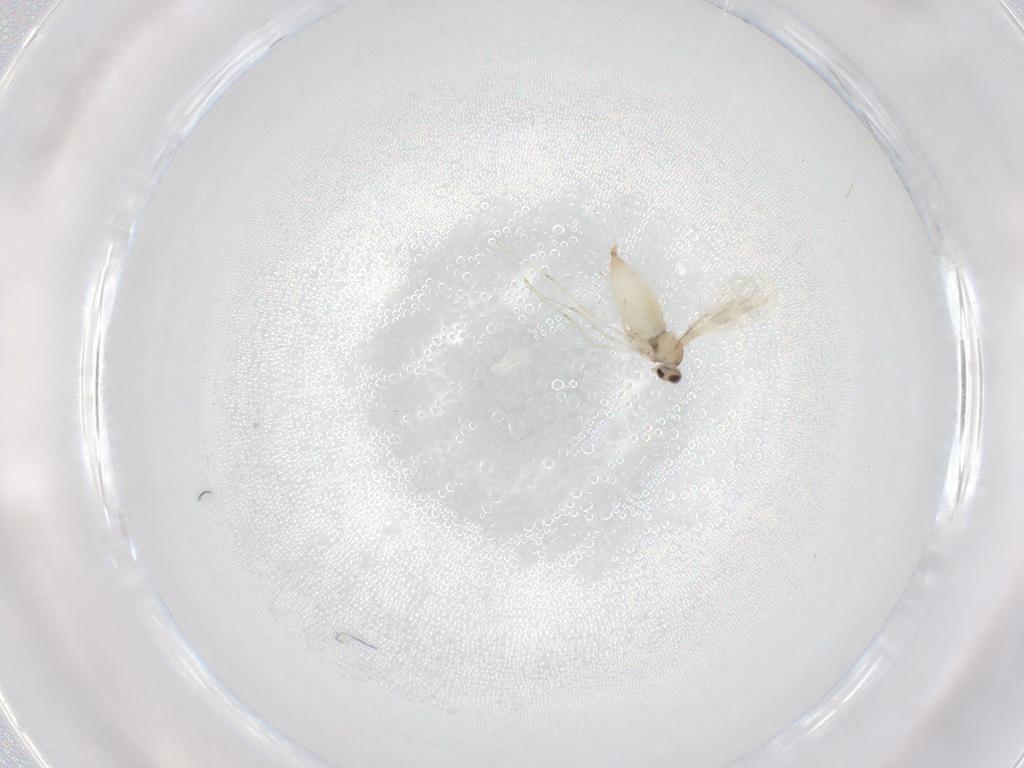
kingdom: Animalia
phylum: Arthropoda
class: Insecta
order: Diptera
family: Cecidomyiidae
